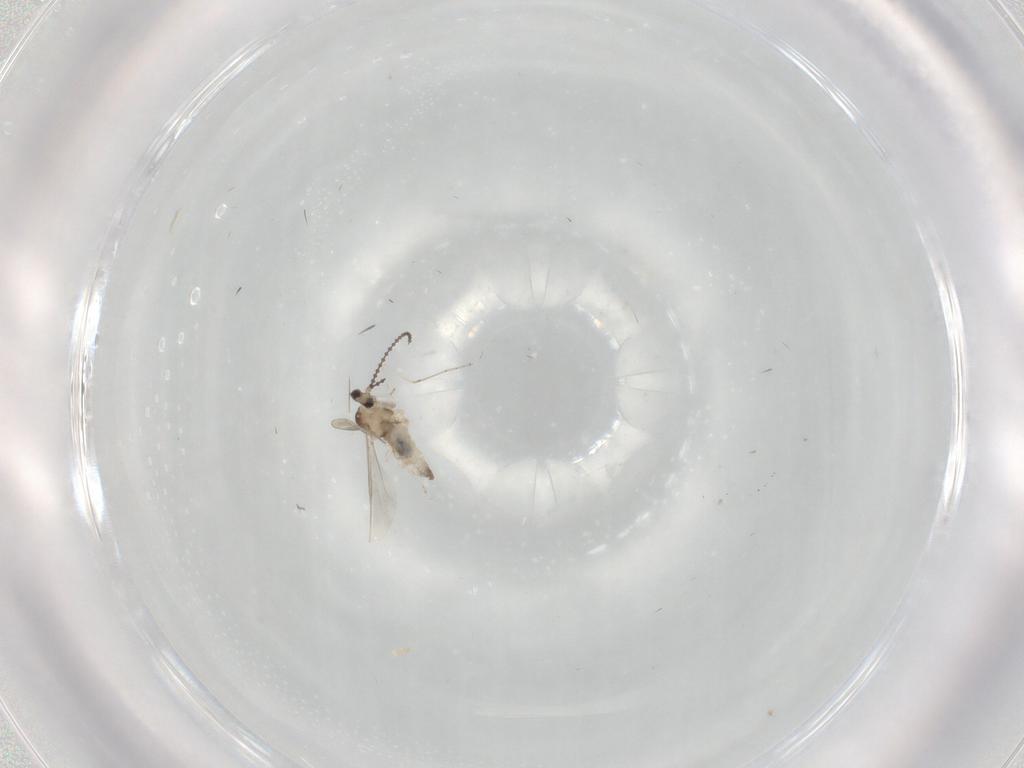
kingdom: Animalia
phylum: Arthropoda
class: Insecta
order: Diptera
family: Cecidomyiidae
